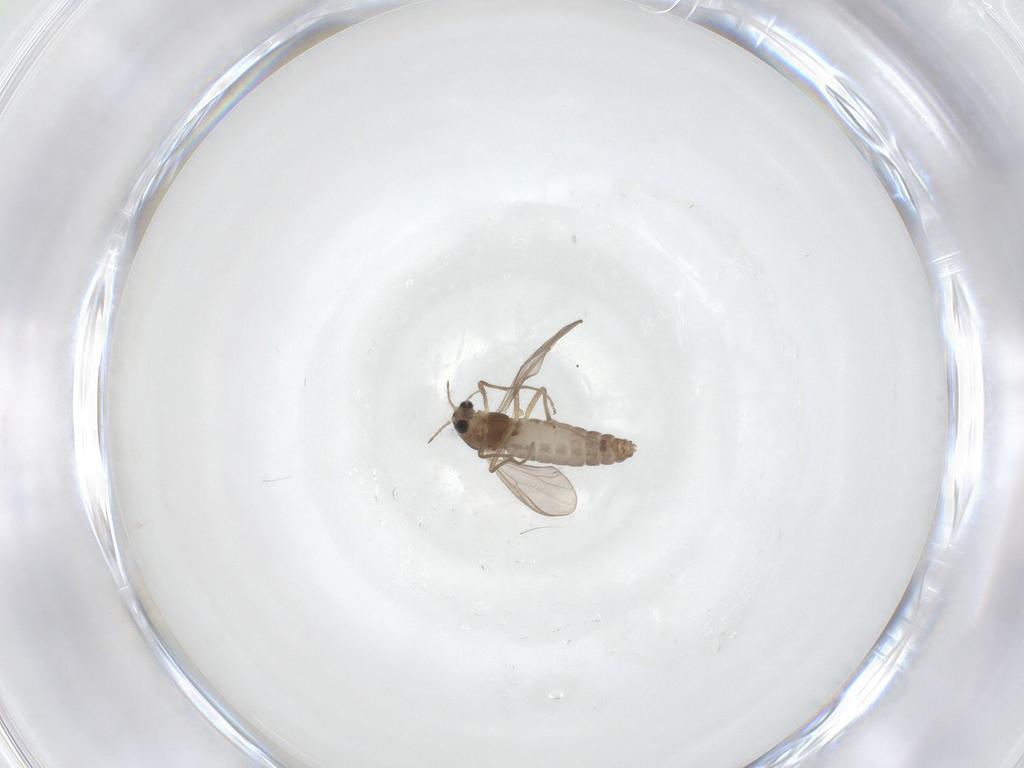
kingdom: Animalia
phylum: Arthropoda
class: Insecta
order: Diptera
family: Chironomidae
